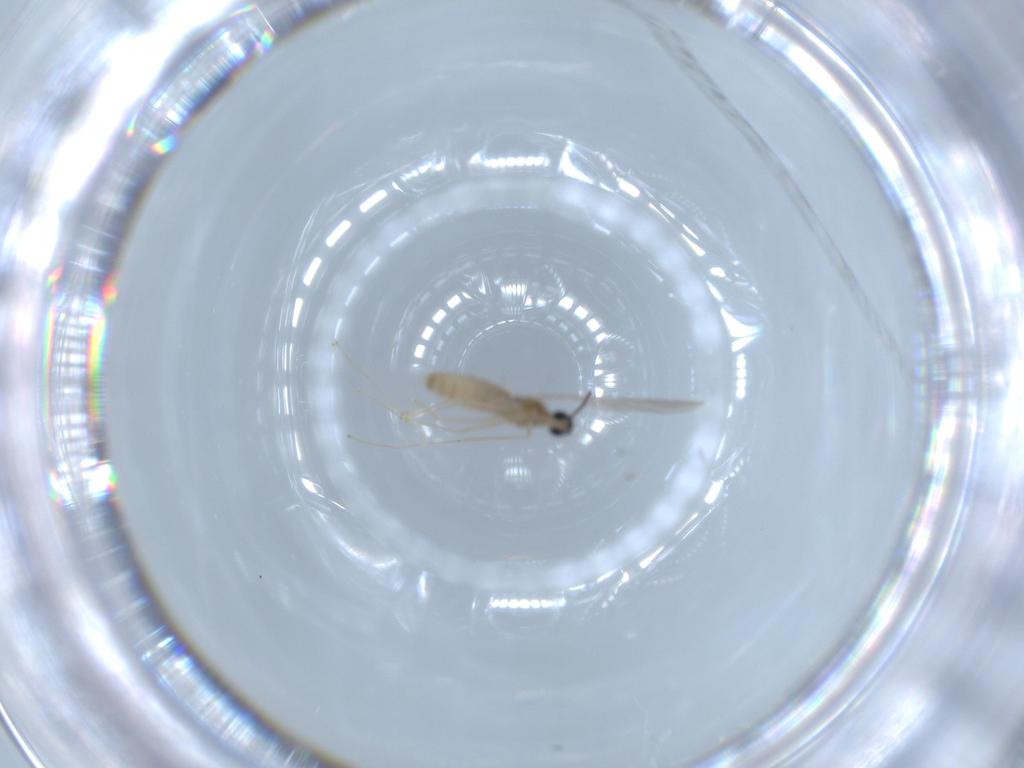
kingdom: Animalia
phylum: Arthropoda
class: Insecta
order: Diptera
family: Cecidomyiidae
